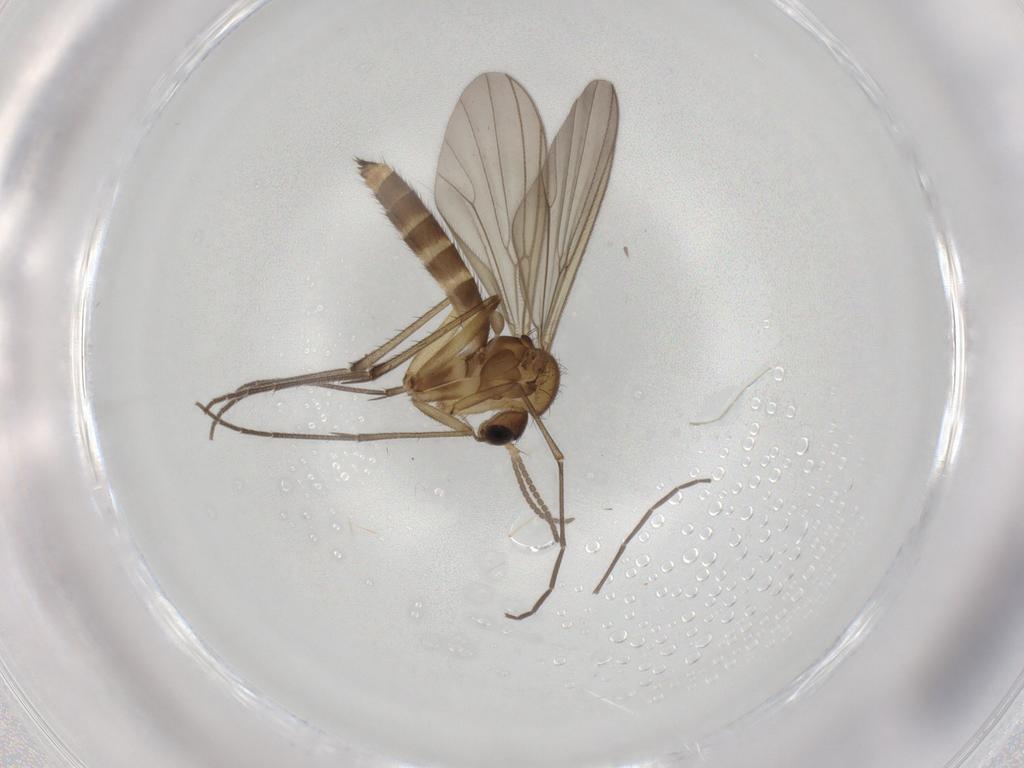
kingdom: Animalia
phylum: Arthropoda
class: Insecta
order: Diptera
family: Mycetophilidae
